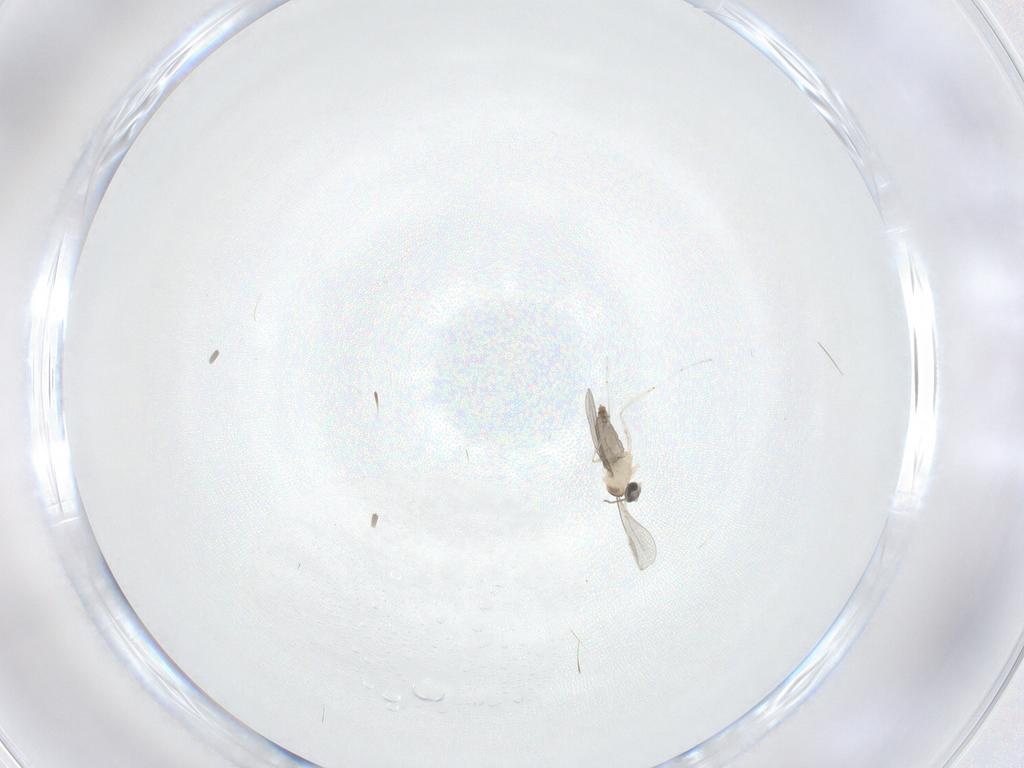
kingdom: Animalia
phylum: Arthropoda
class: Insecta
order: Diptera
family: Cecidomyiidae
